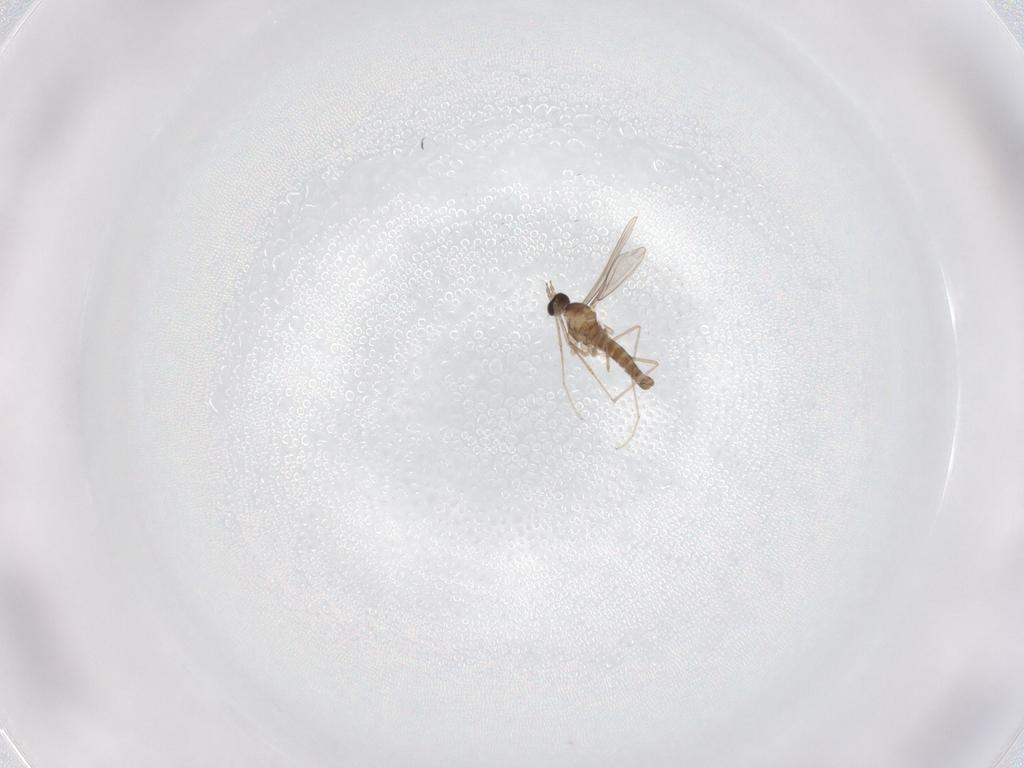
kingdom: Animalia
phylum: Arthropoda
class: Insecta
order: Diptera
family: Cecidomyiidae
